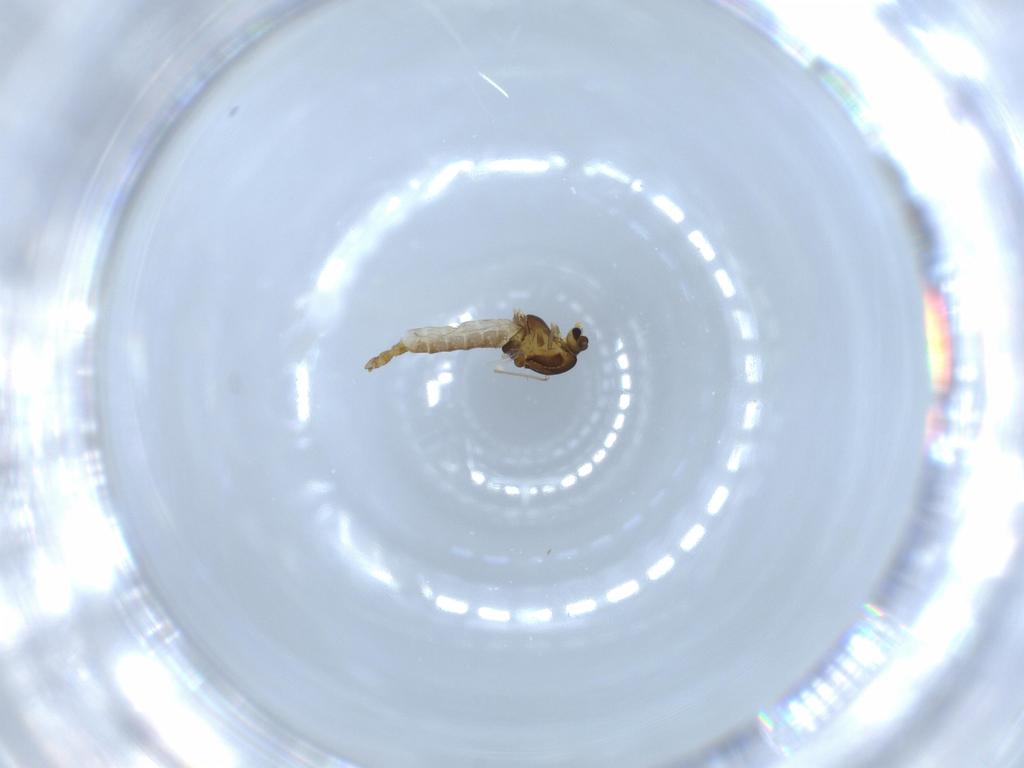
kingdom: Animalia
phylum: Arthropoda
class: Insecta
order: Diptera
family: Chironomidae
